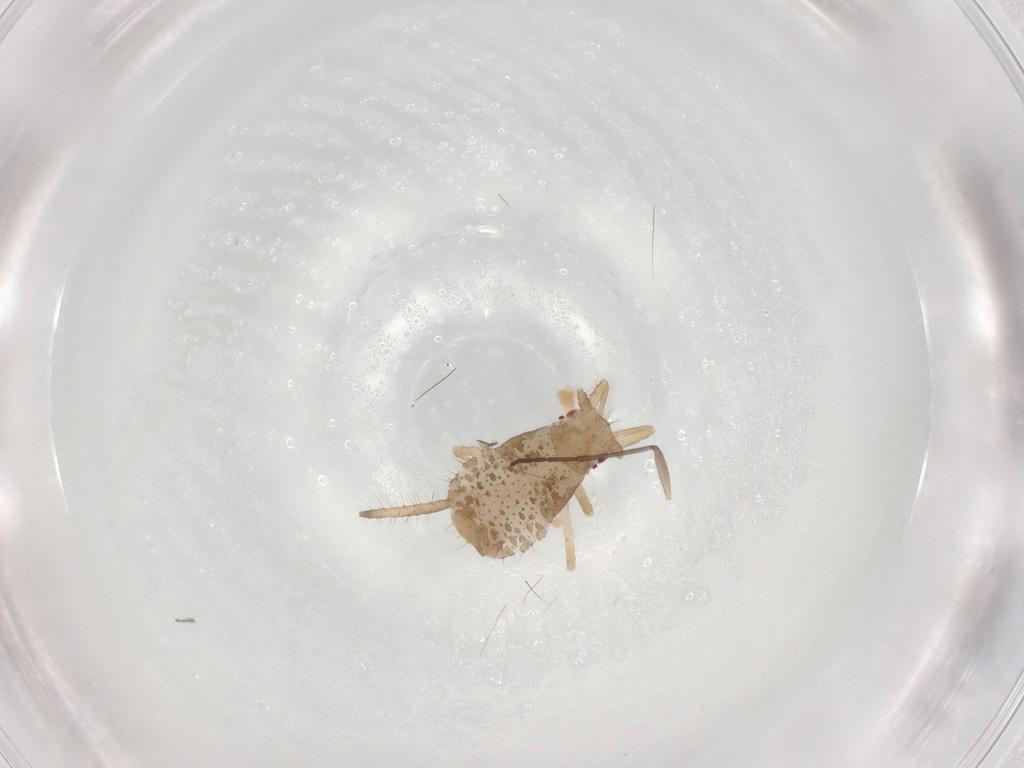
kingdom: Animalia
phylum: Arthropoda
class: Insecta
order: Hemiptera
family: Aphididae
